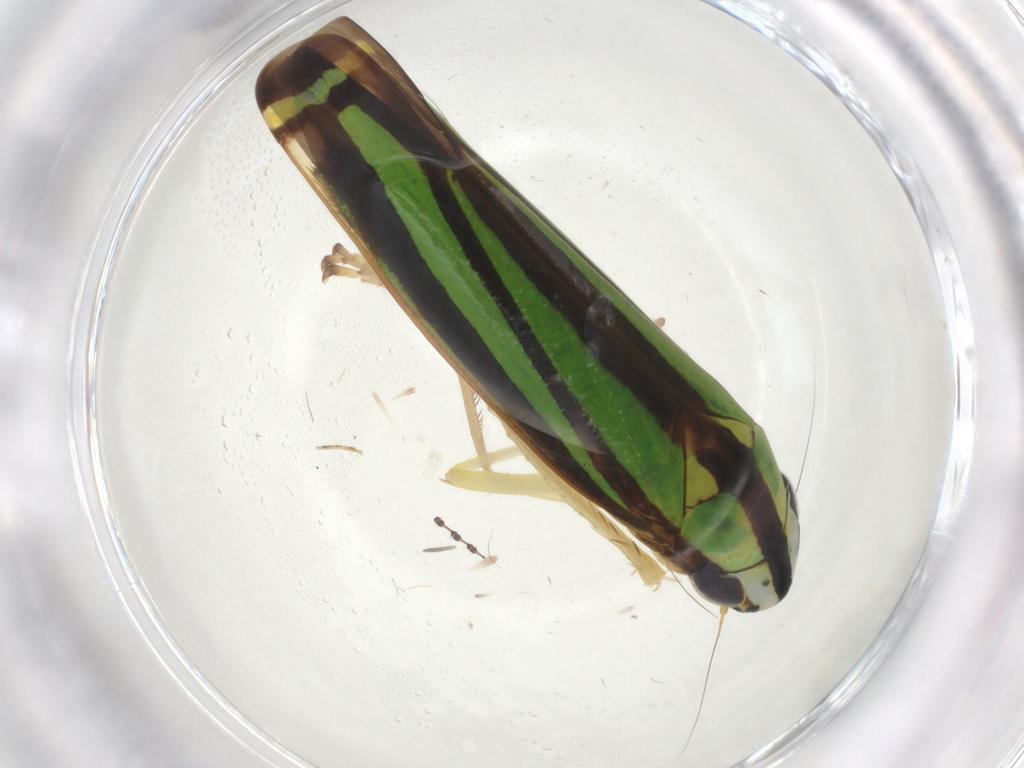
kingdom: Animalia
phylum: Arthropoda
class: Insecta
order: Hemiptera
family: Cicadellidae
